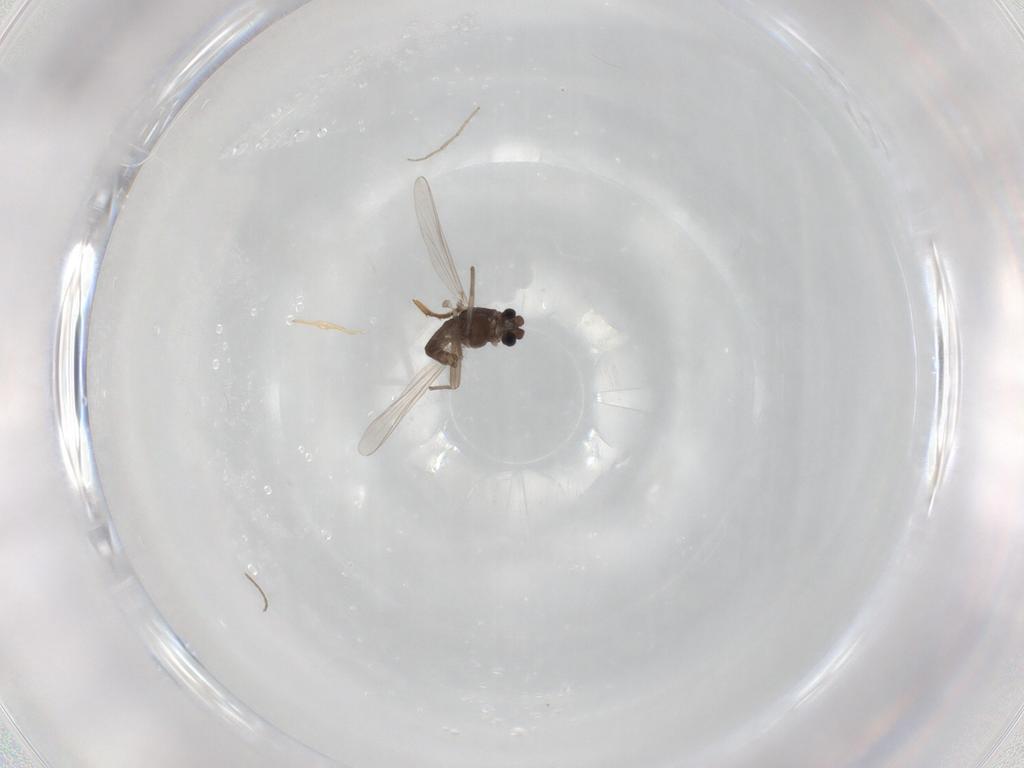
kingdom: Animalia
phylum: Arthropoda
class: Insecta
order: Diptera
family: Chironomidae
